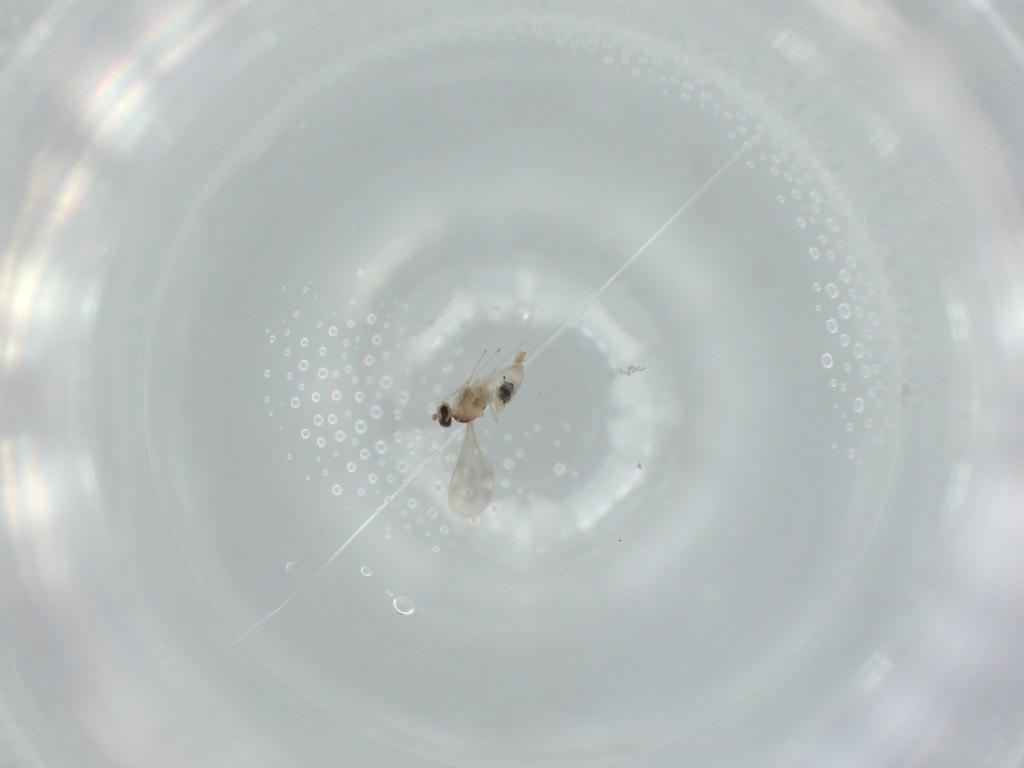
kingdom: Animalia
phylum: Arthropoda
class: Insecta
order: Diptera
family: Cecidomyiidae
